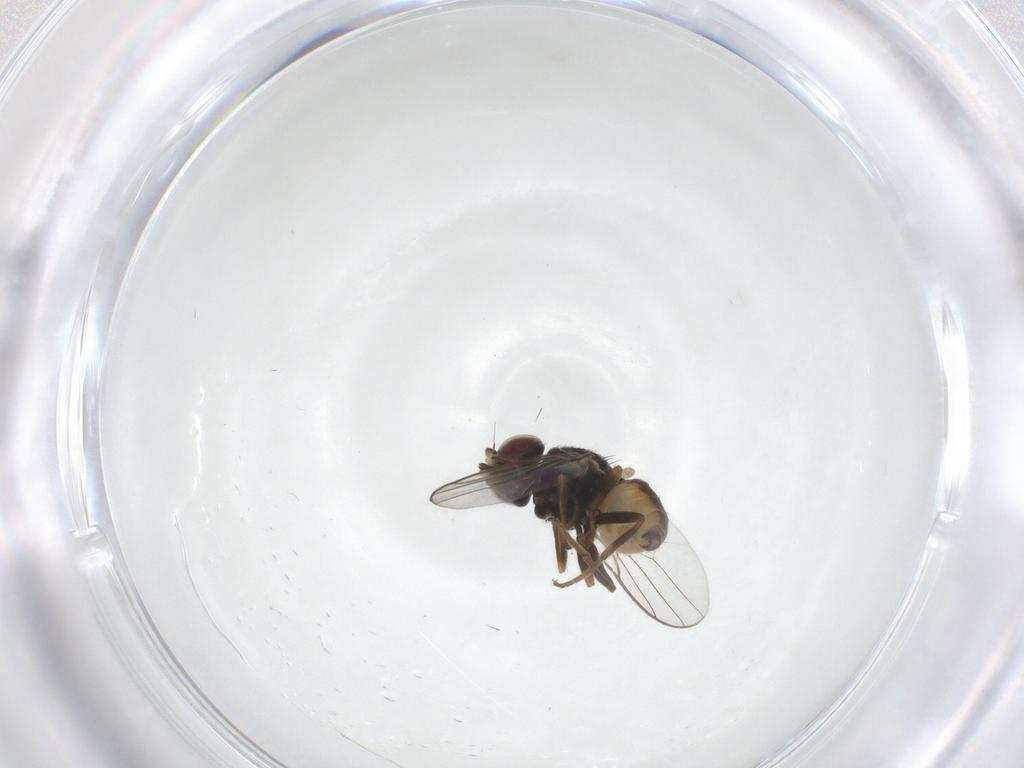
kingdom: Animalia
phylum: Arthropoda
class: Insecta
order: Diptera
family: Chloropidae
